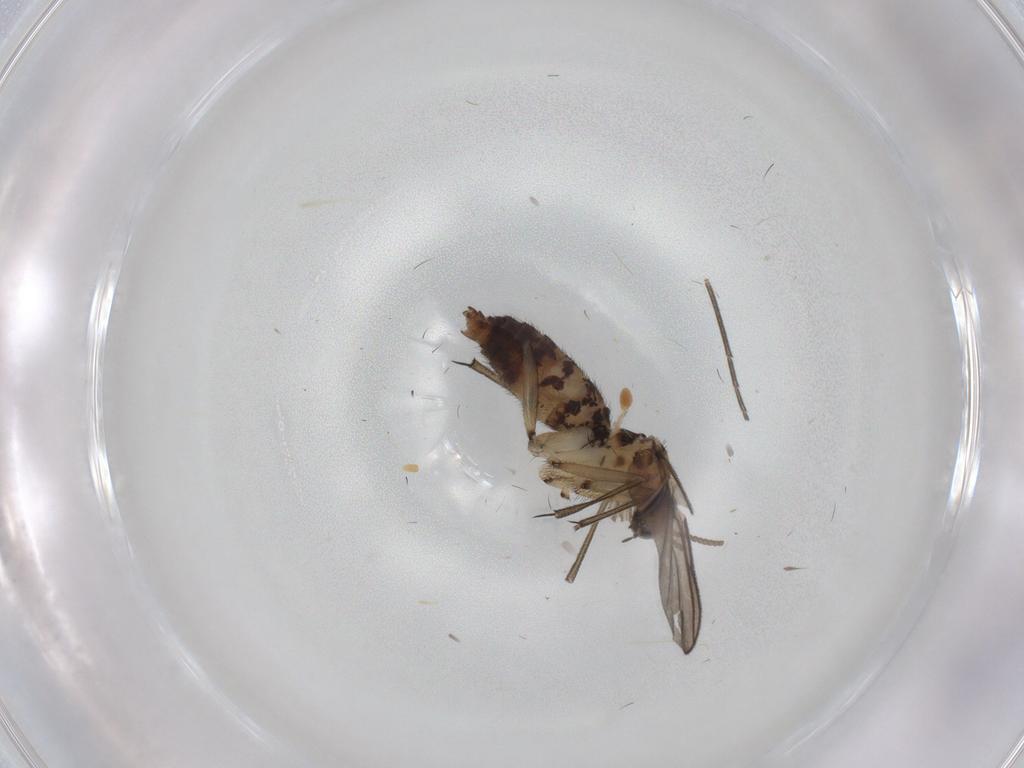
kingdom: Animalia
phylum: Arthropoda
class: Insecta
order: Diptera
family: Keroplatidae
